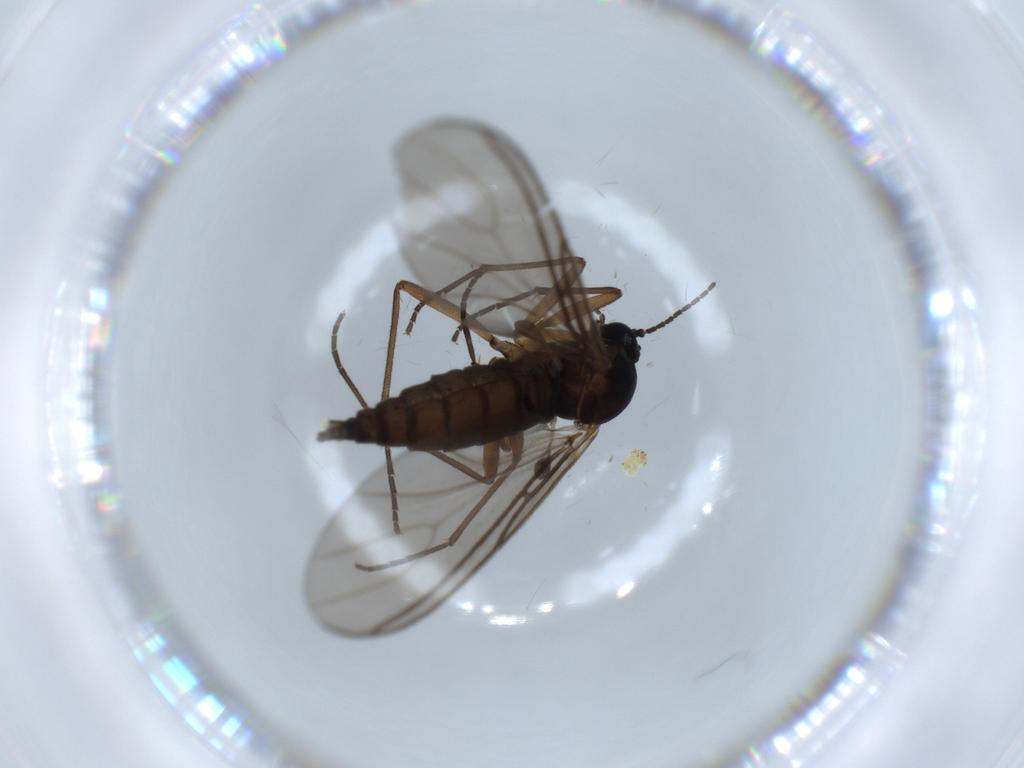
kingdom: Animalia
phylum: Arthropoda
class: Insecta
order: Diptera
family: Sciaridae
